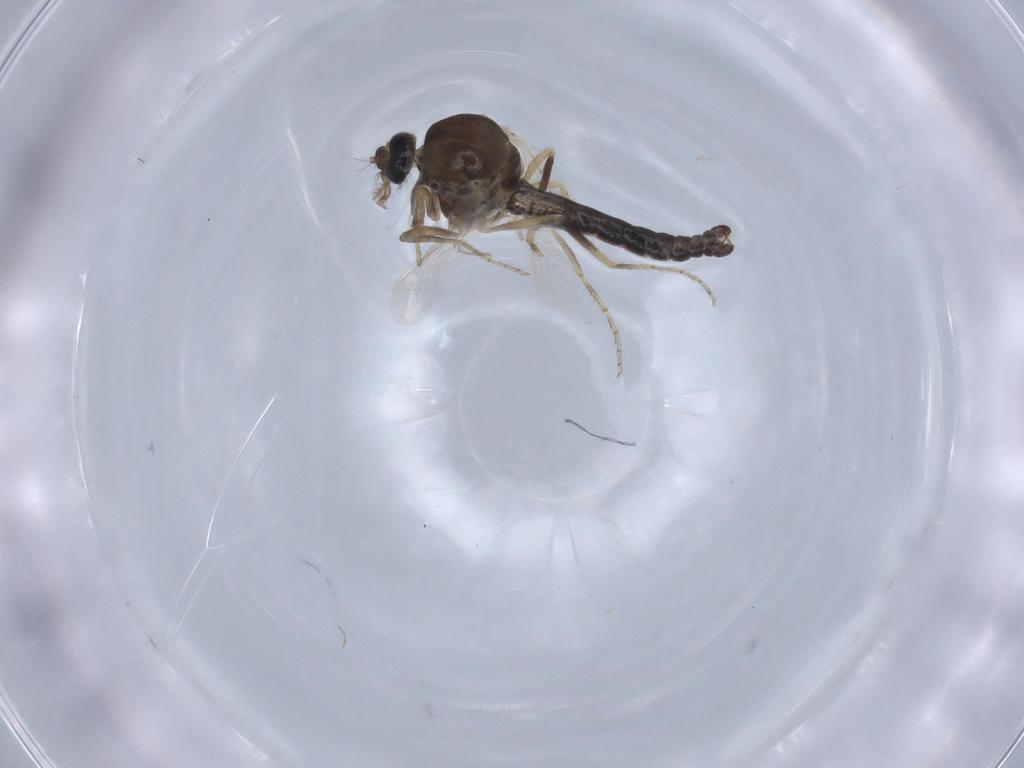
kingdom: Animalia
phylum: Arthropoda
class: Insecta
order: Diptera
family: Ceratopogonidae
